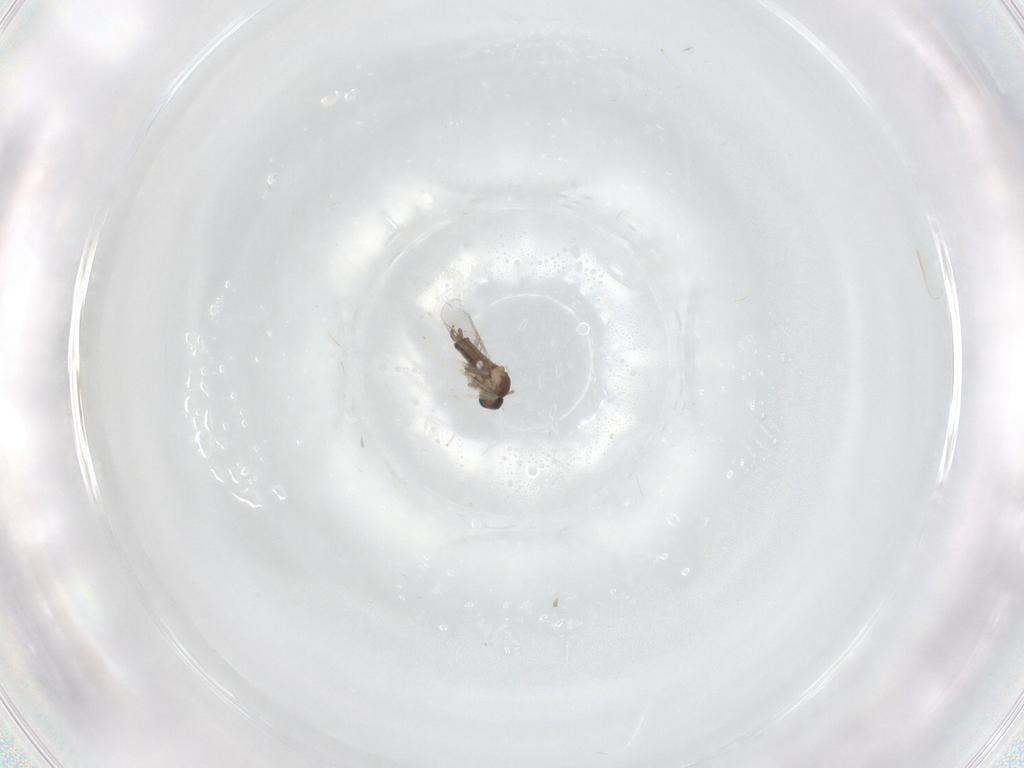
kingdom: Animalia
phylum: Arthropoda
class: Insecta
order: Diptera
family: Cecidomyiidae
